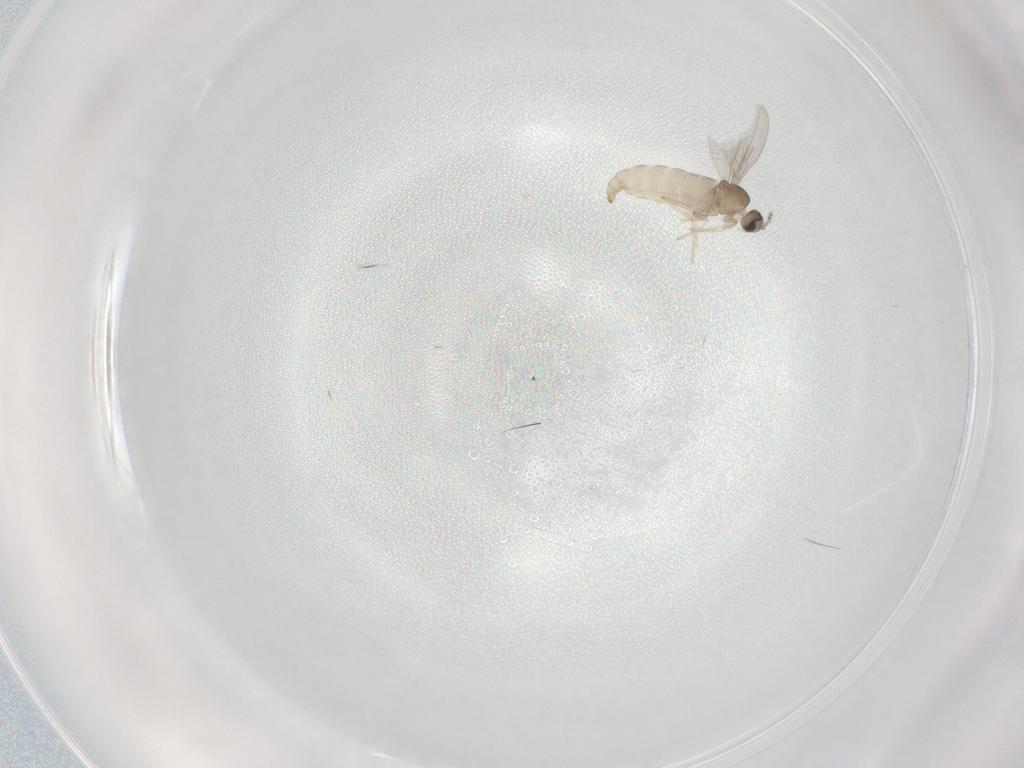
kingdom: Animalia
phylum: Arthropoda
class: Insecta
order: Diptera
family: Cecidomyiidae
